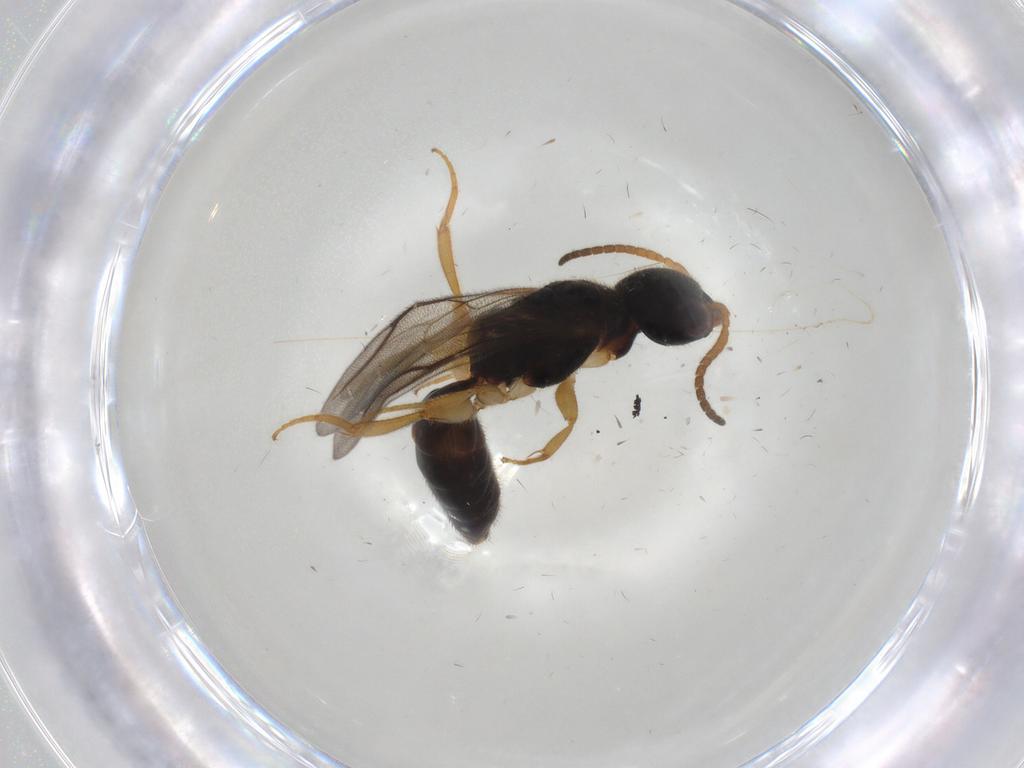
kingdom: Animalia
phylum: Arthropoda
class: Insecta
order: Hymenoptera
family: Bethylidae
